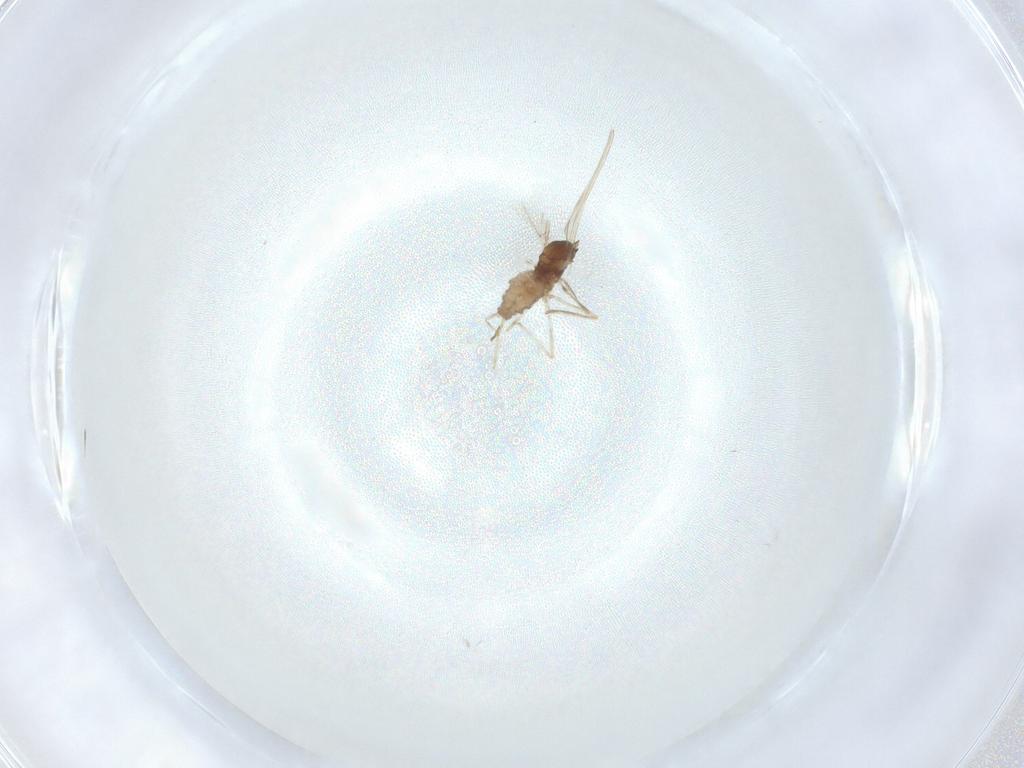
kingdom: Animalia
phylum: Arthropoda
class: Insecta
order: Diptera
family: Cecidomyiidae
